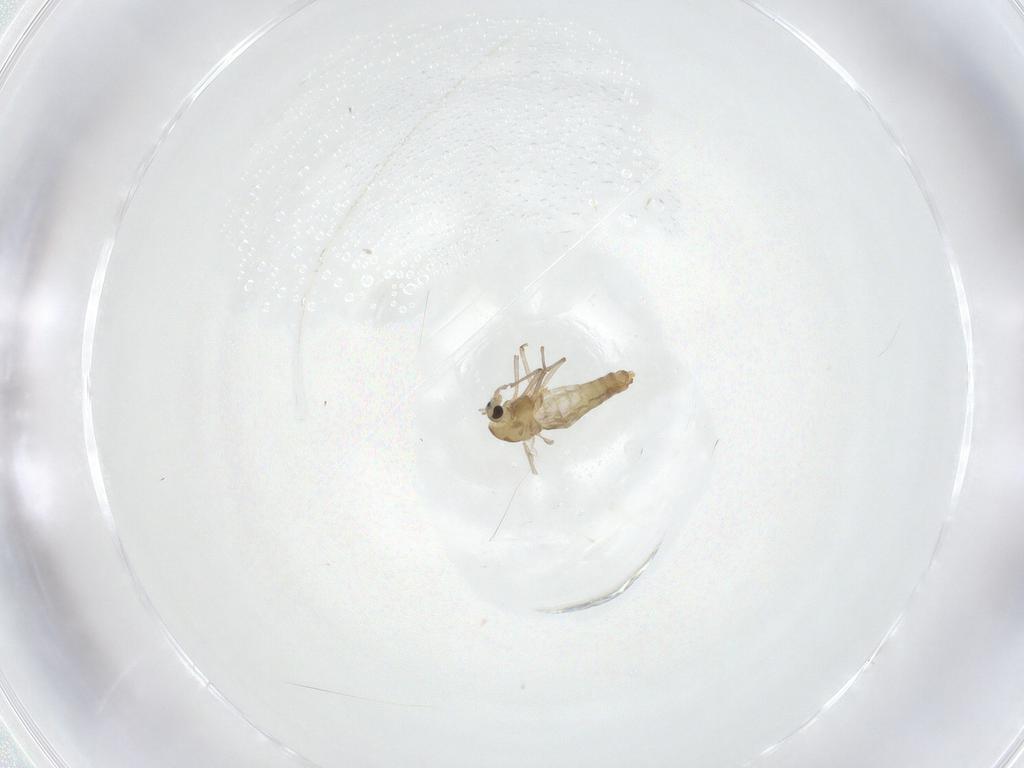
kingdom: Animalia
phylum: Arthropoda
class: Insecta
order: Diptera
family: Chironomidae
